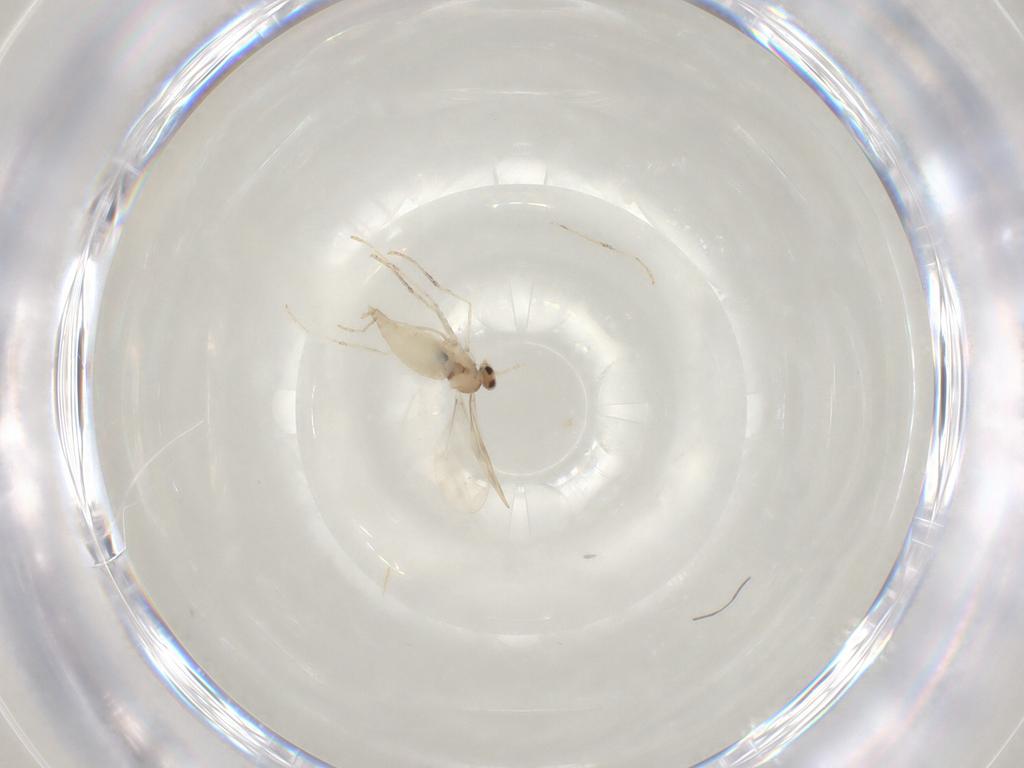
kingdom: Animalia
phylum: Arthropoda
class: Insecta
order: Diptera
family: Cecidomyiidae
